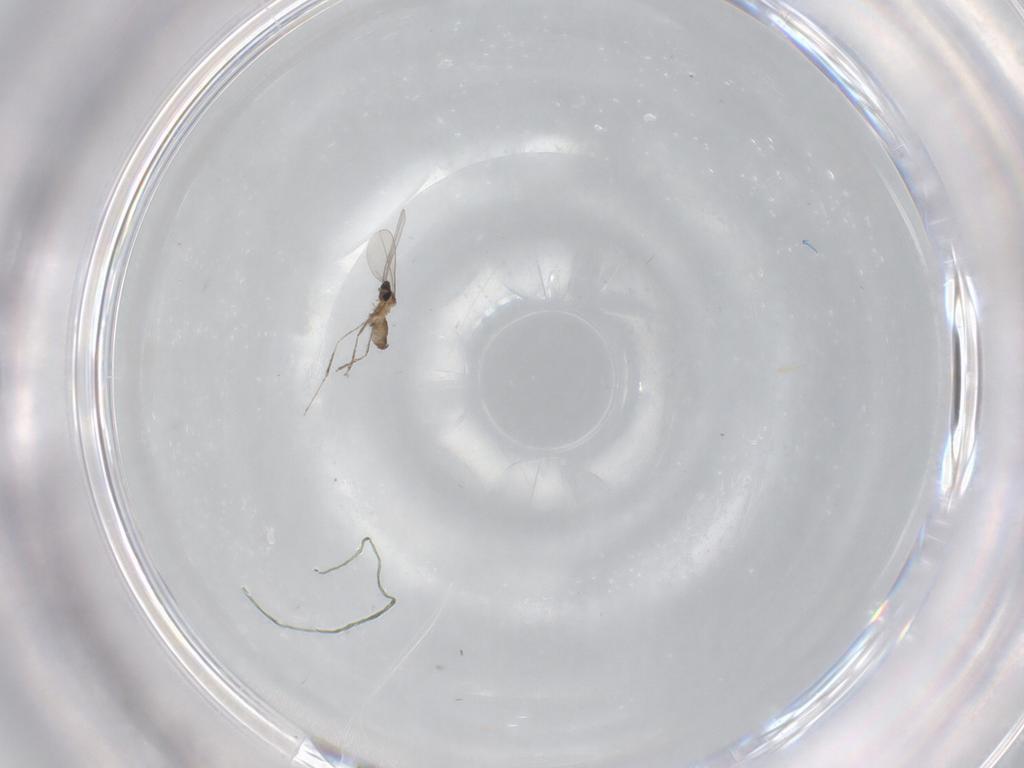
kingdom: Animalia
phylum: Arthropoda
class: Insecta
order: Diptera
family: Cecidomyiidae
